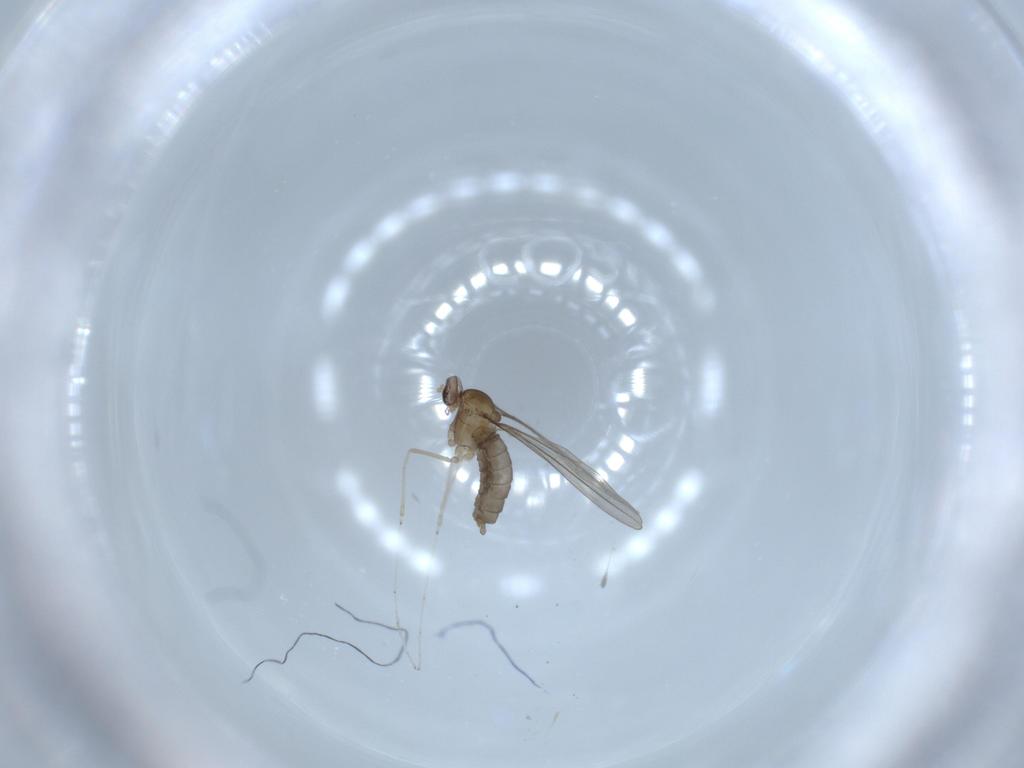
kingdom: Animalia
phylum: Arthropoda
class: Insecta
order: Diptera
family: Cecidomyiidae
